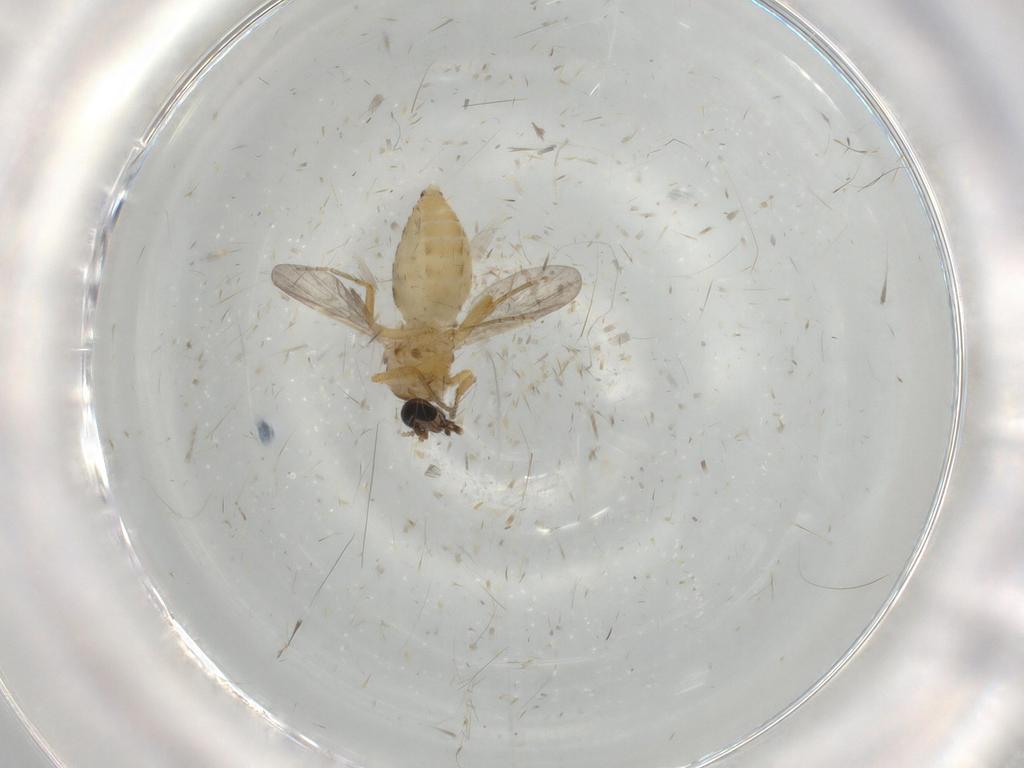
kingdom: Animalia
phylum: Arthropoda
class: Insecta
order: Diptera
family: Ceratopogonidae
